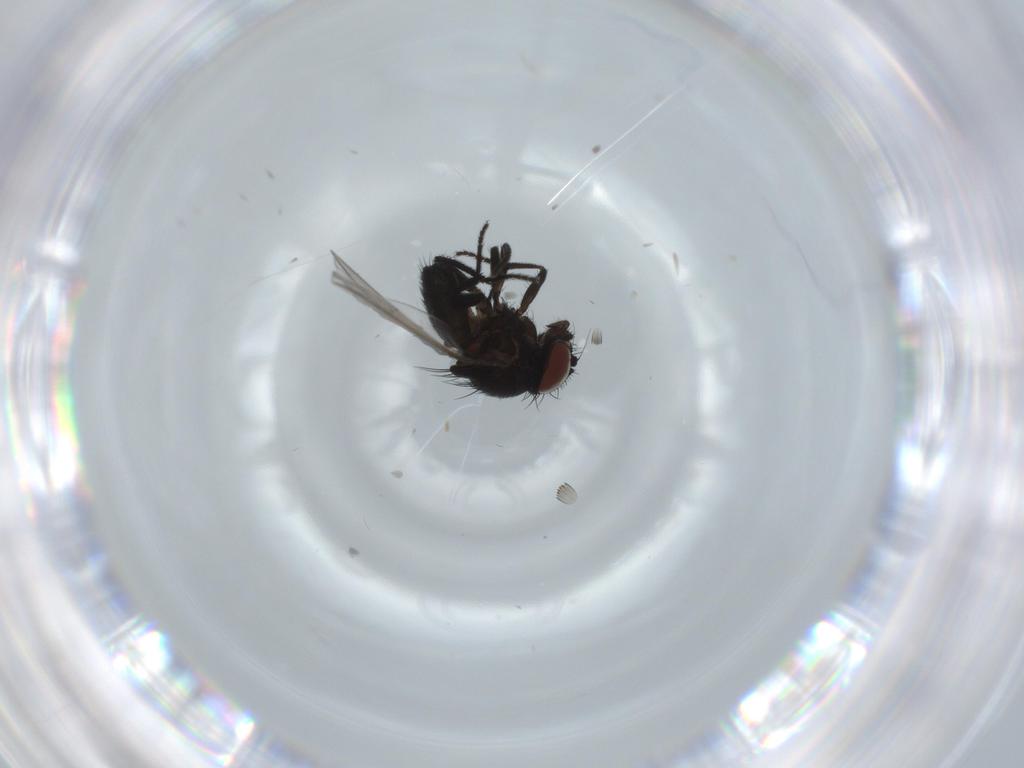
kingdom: Animalia
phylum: Arthropoda
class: Insecta
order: Diptera
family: Milichiidae
